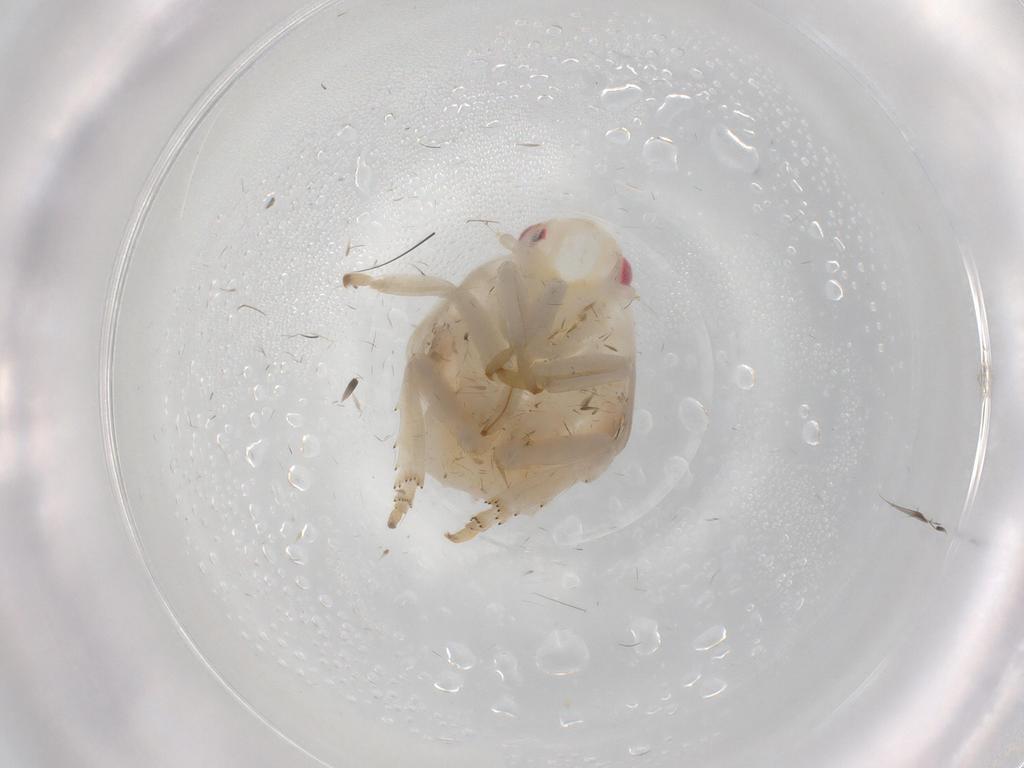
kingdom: Animalia
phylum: Arthropoda
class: Insecta
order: Hemiptera
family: Flatidae
